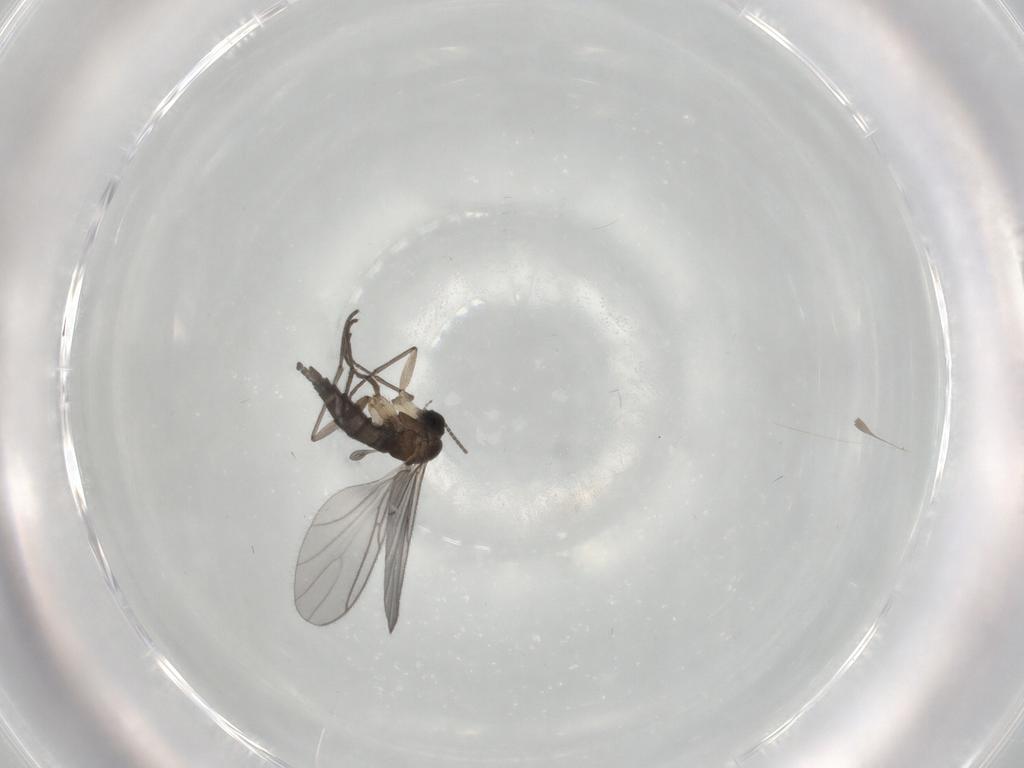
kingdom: Animalia
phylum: Arthropoda
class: Insecta
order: Diptera
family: Sciaridae
